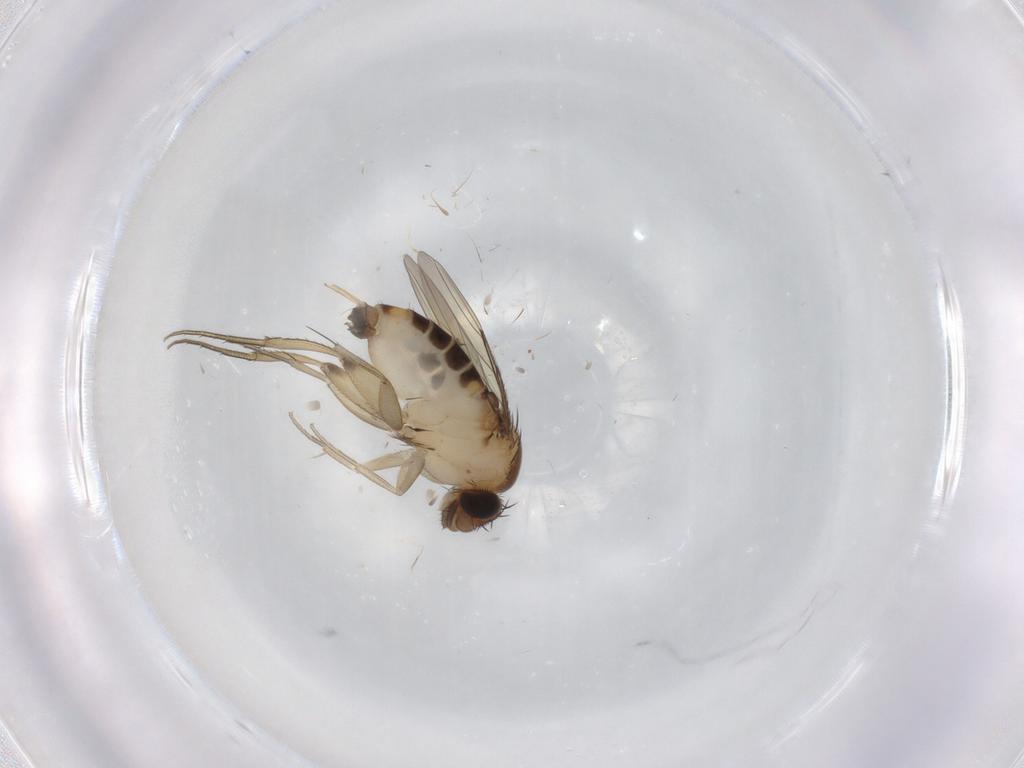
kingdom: Animalia
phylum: Arthropoda
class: Insecta
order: Diptera
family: Phoridae
